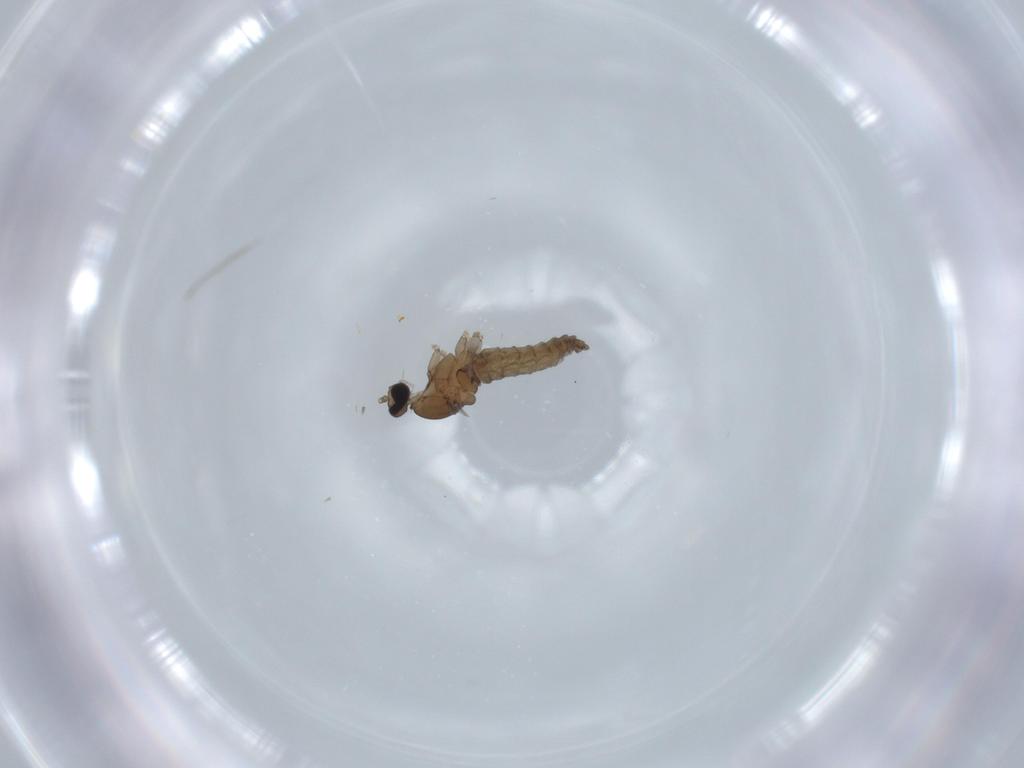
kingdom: Animalia
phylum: Arthropoda
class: Insecta
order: Diptera
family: Cecidomyiidae
